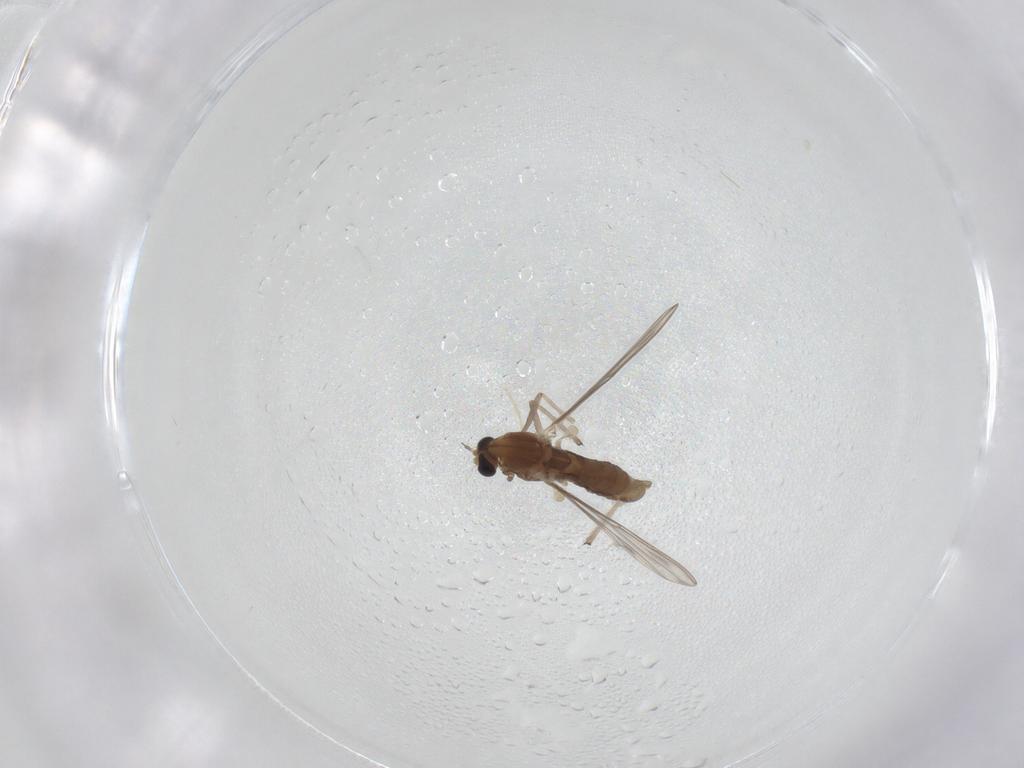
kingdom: Animalia
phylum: Arthropoda
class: Insecta
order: Diptera
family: Chironomidae
